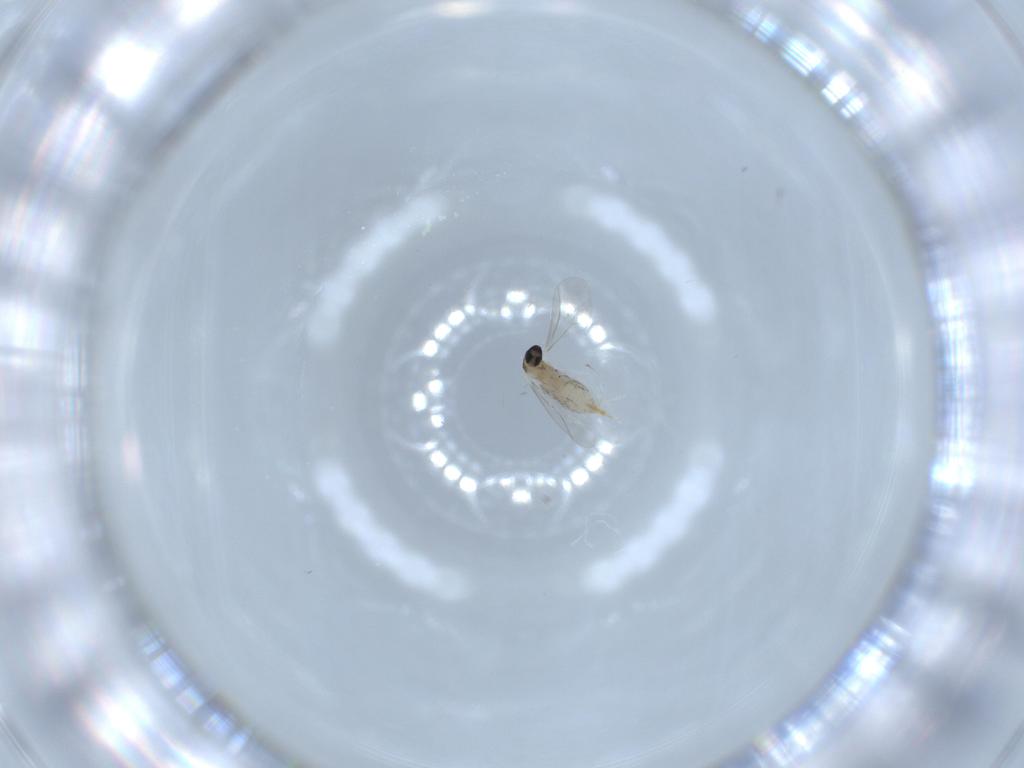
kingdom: Animalia
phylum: Arthropoda
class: Insecta
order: Diptera
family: Cecidomyiidae
